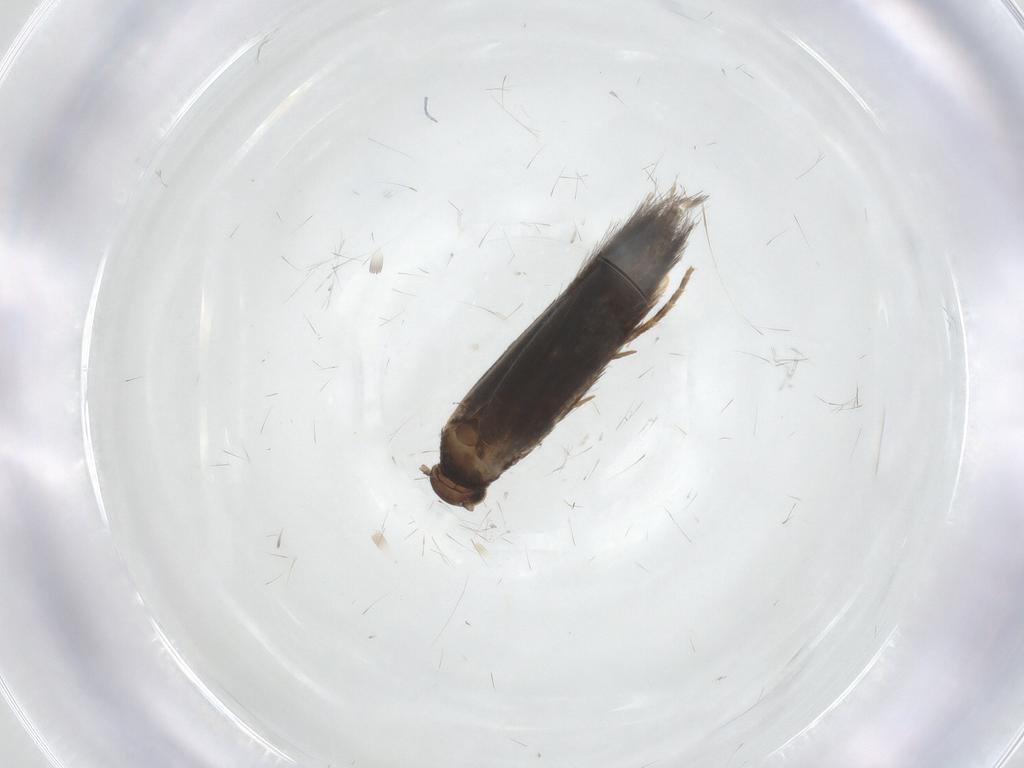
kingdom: Animalia
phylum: Arthropoda
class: Insecta
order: Lepidoptera
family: Elachistidae
